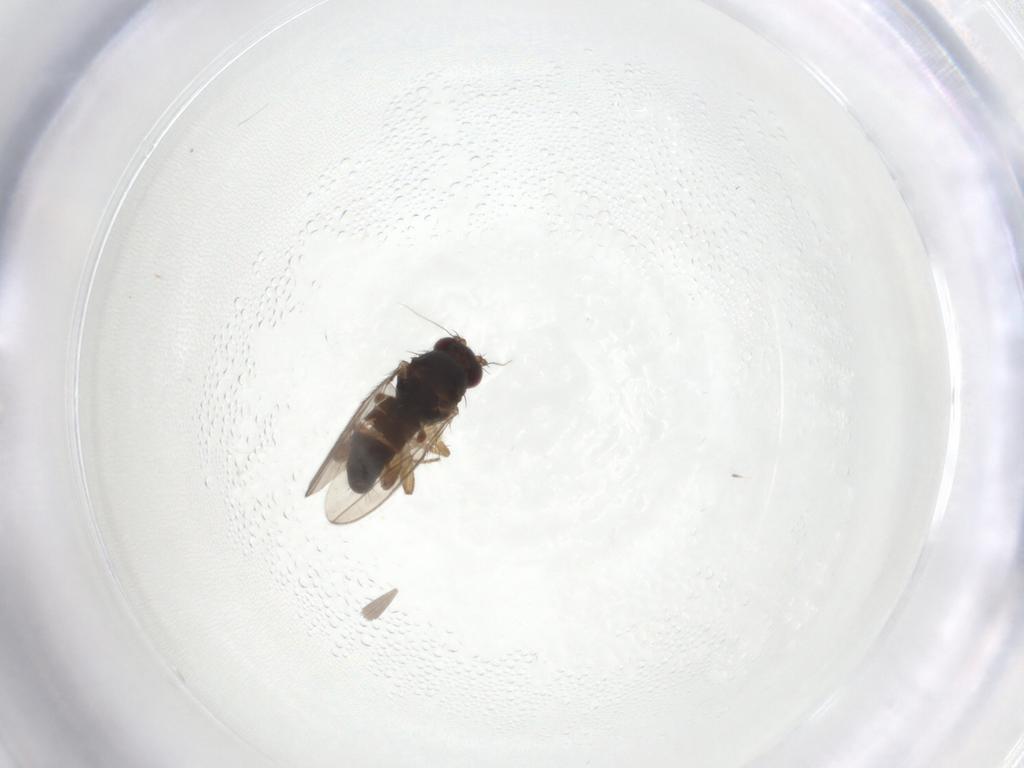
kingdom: Animalia
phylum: Arthropoda
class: Insecta
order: Diptera
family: Sphaeroceridae
